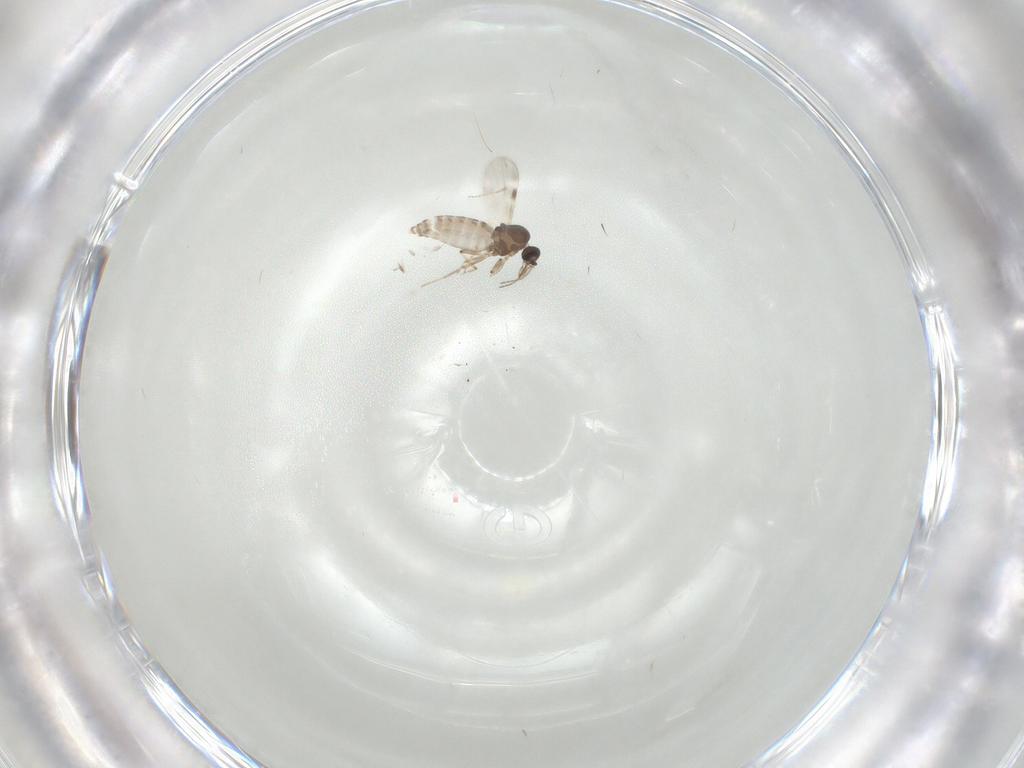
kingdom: Animalia
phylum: Arthropoda
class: Insecta
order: Diptera
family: Cecidomyiidae
